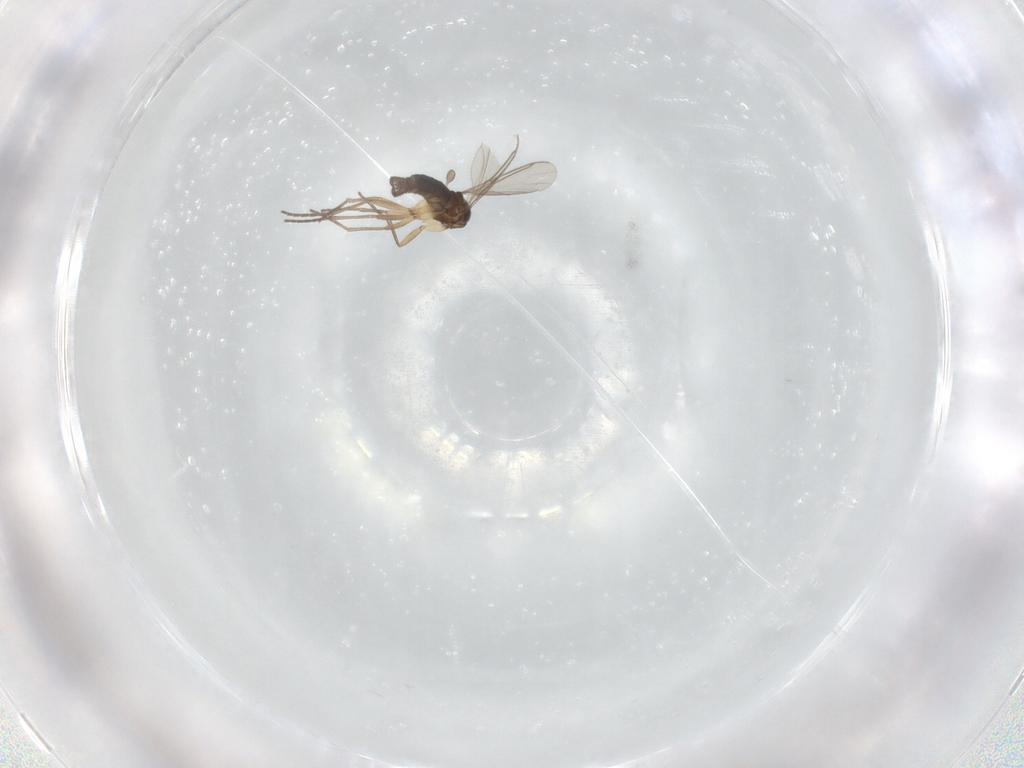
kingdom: Animalia
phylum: Arthropoda
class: Insecta
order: Diptera
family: Sciaridae
